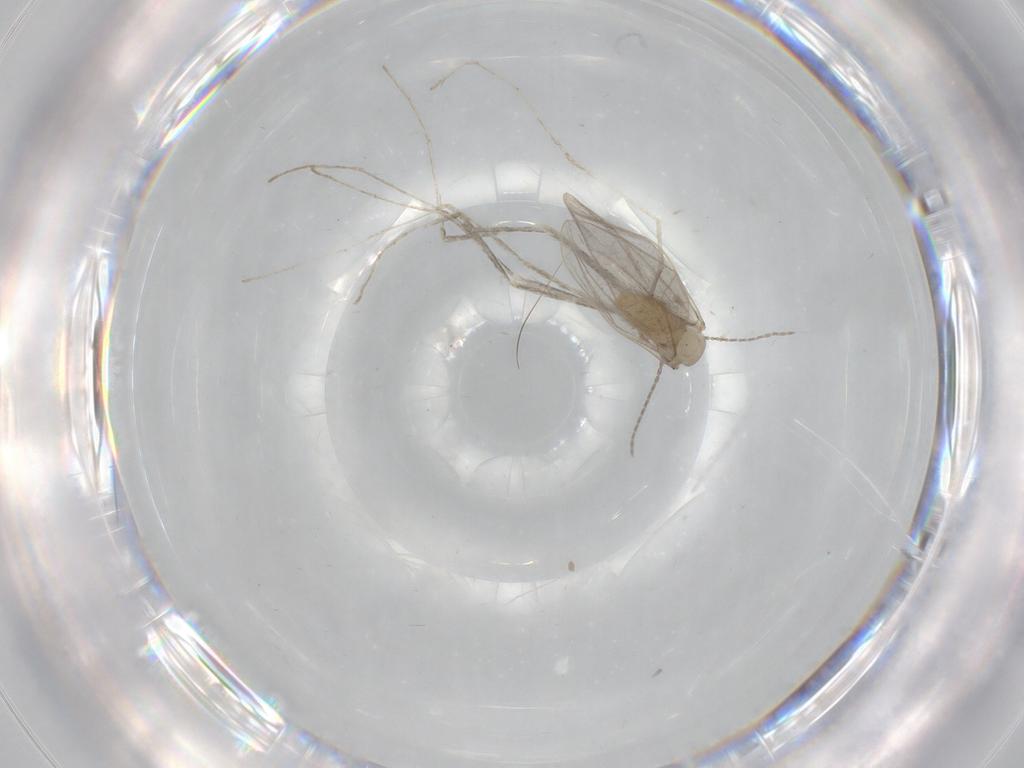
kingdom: Animalia
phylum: Arthropoda
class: Insecta
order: Diptera
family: Cecidomyiidae
